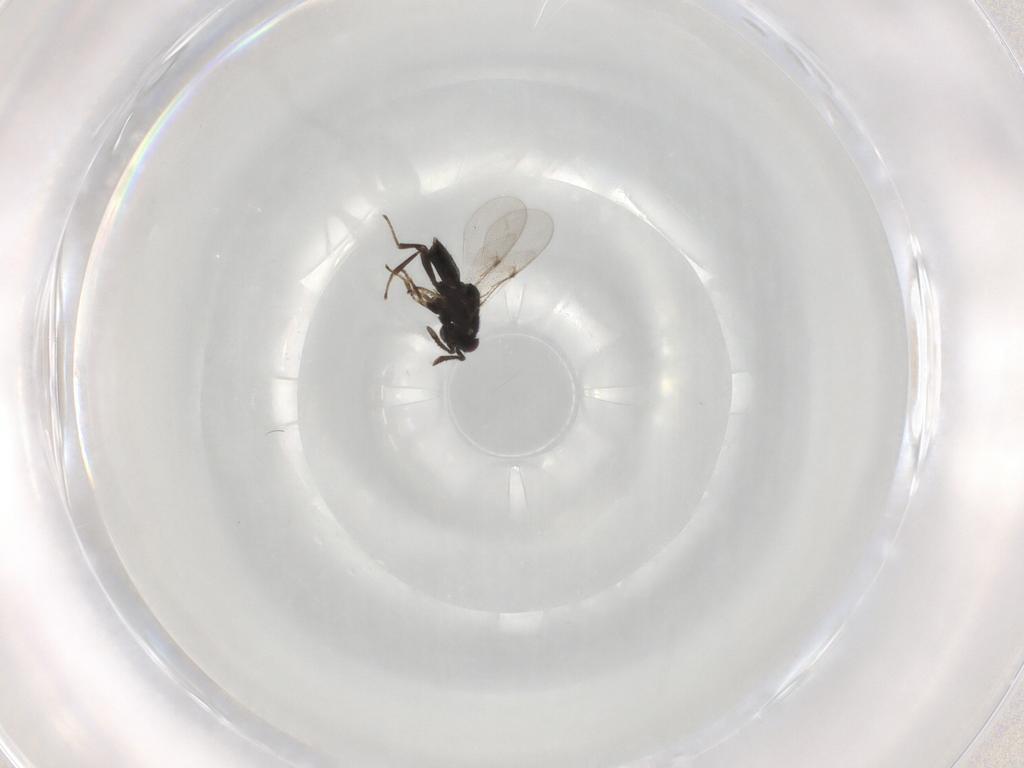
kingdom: Animalia
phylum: Arthropoda
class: Insecta
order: Hymenoptera
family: Encyrtidae
